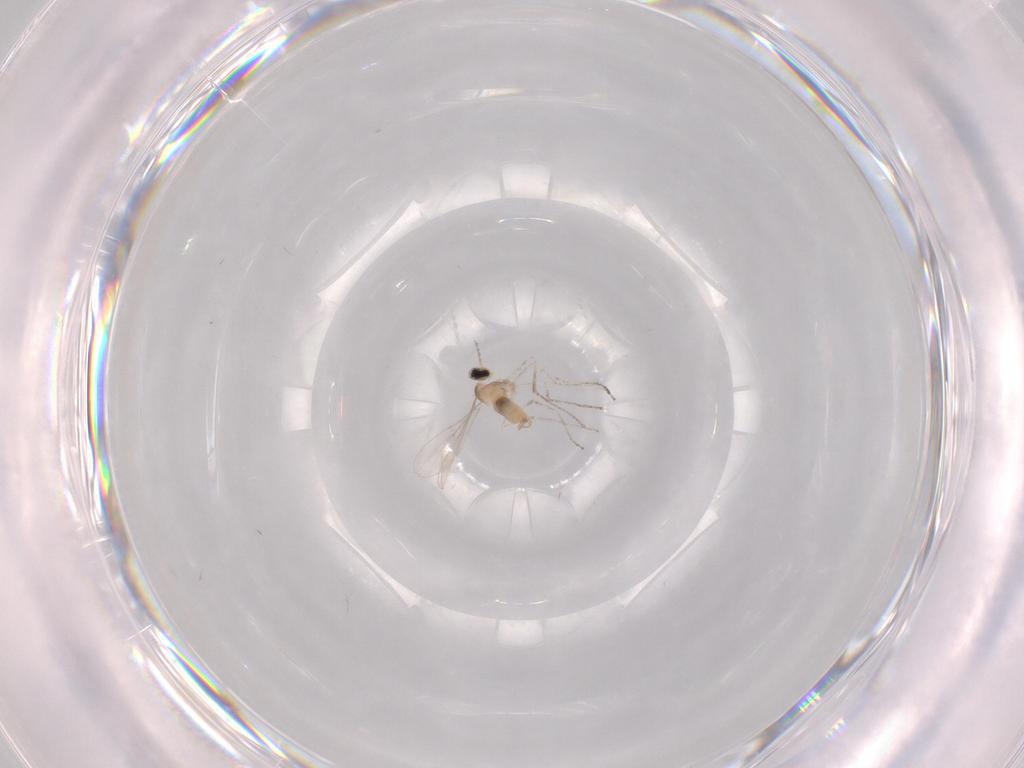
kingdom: Animalia
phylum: Arthropoda
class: Insecta
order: Diptera
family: Cecidomyiidae
